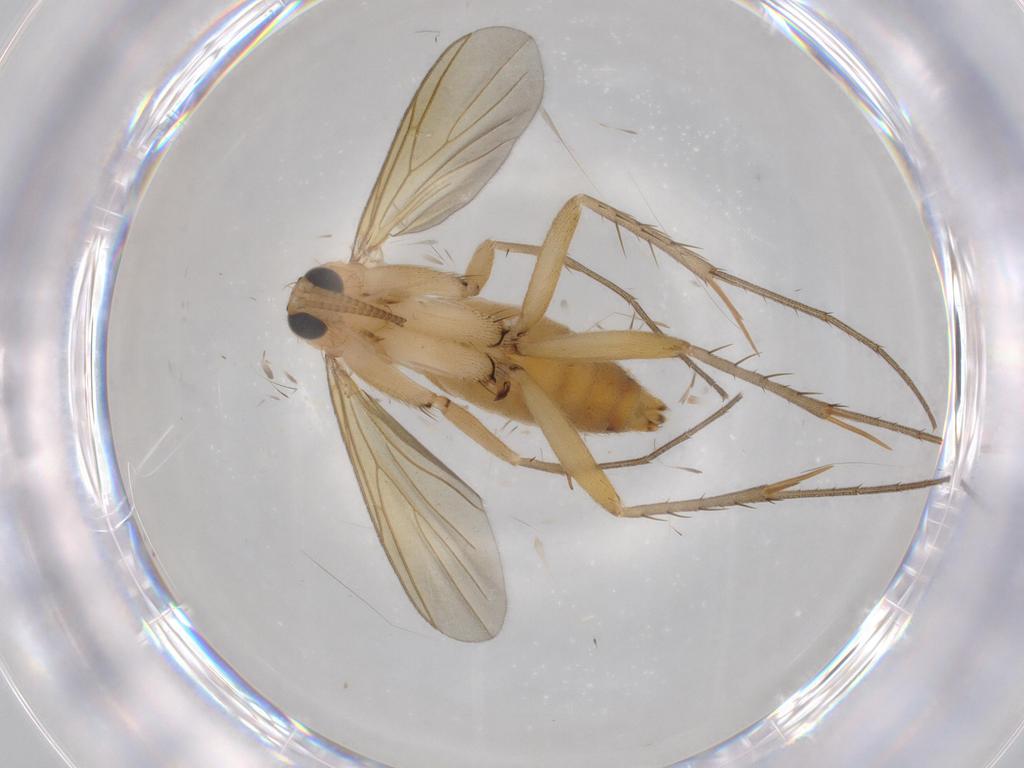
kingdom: Animalia
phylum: Arthropoda
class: Insecta
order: Diptera
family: Mycetophilidae
